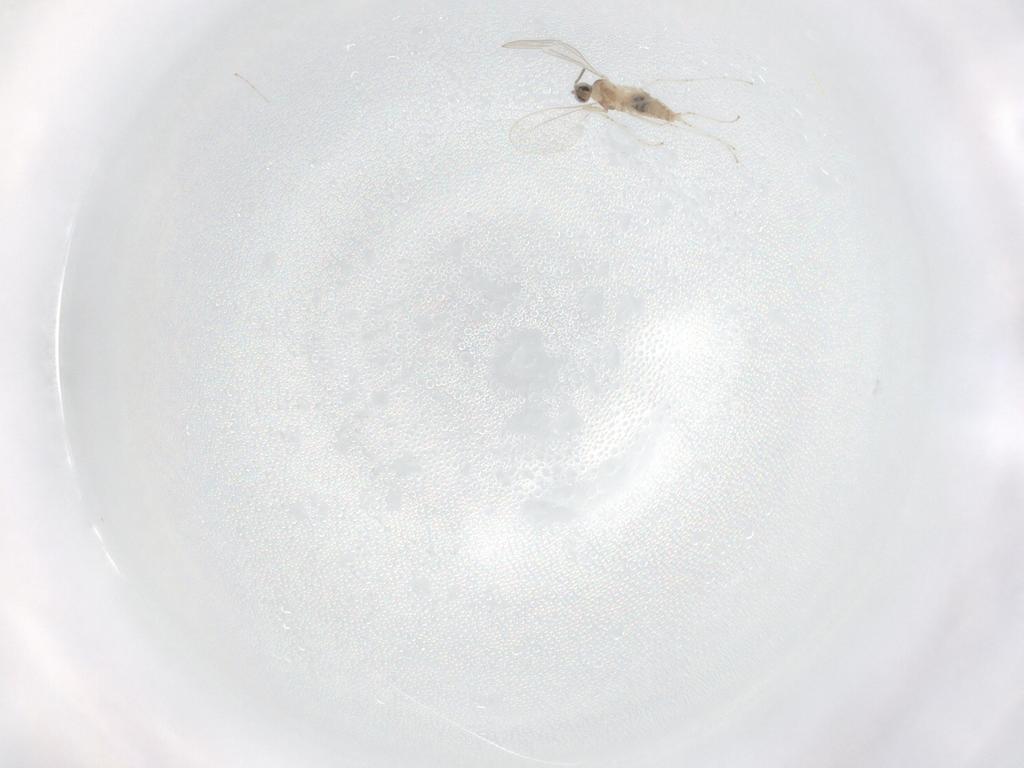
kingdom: Animalia
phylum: Arthropoda
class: Insecta
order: Diptera
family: Cecidomyiidae
